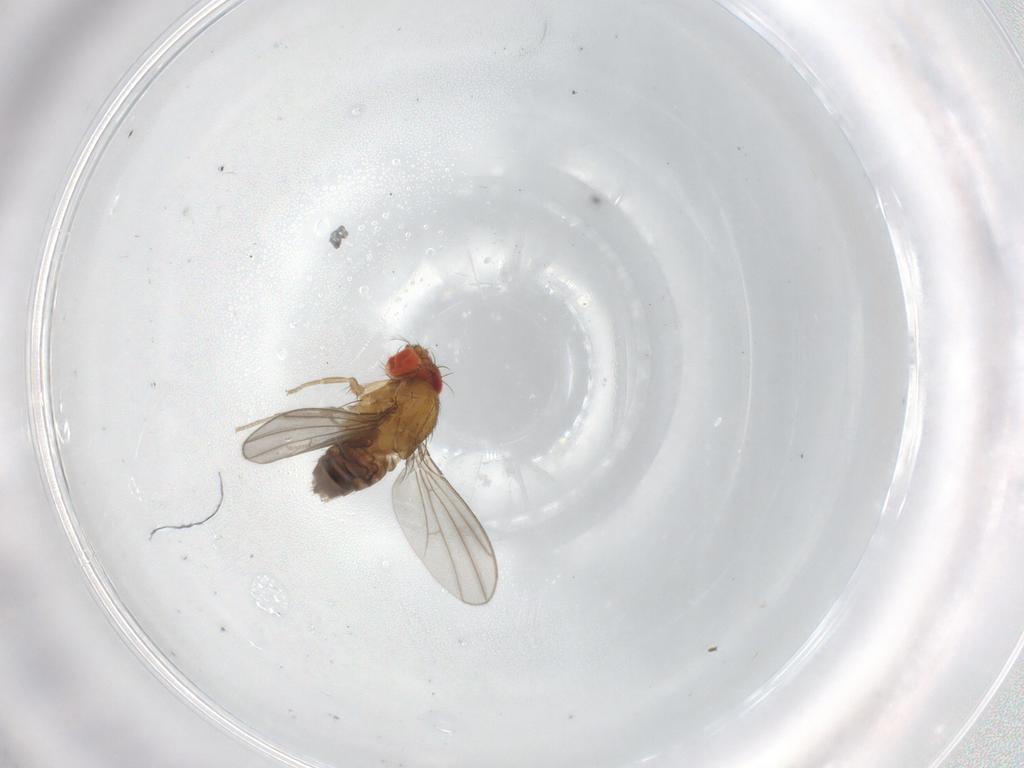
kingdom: Animalia
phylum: Arthropoda
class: Insecta
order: Diptera
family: Drosophilidae
